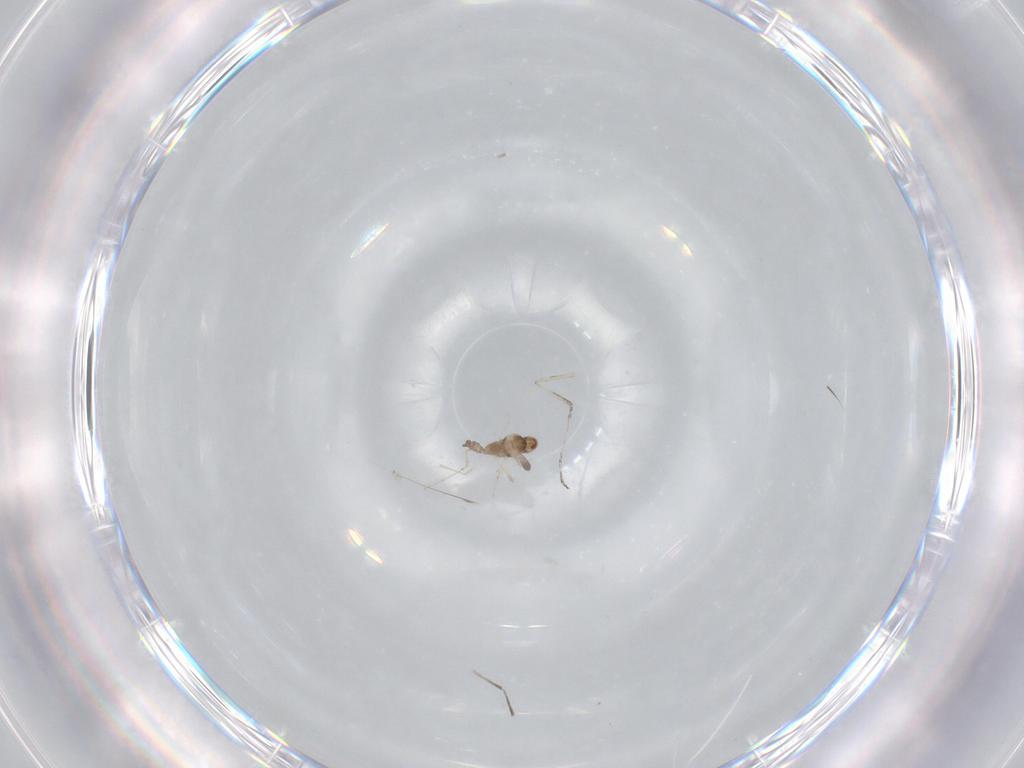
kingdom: Animalia
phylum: Arthropoda
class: Insecta
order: Diptera
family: Cecidomyiidae
